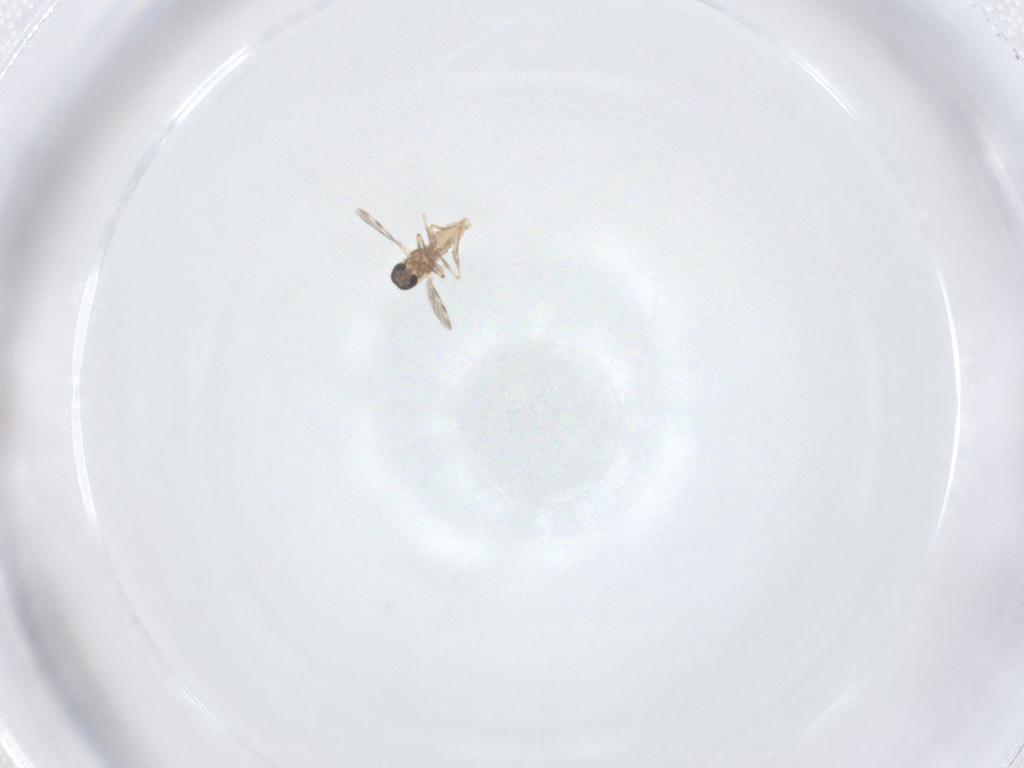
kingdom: Animalia
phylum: Arthropoda
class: Insecta
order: Diptera
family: Ceratopogonidae
